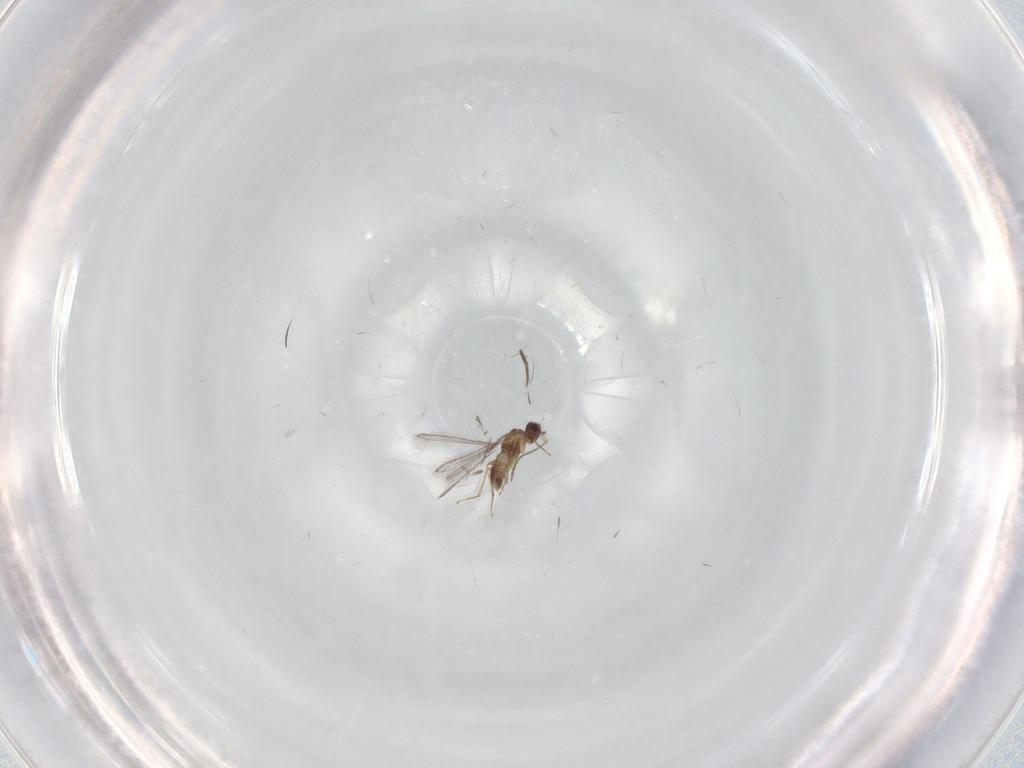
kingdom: Animalia
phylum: Arthropoda
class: Insecta
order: Hymenoptera
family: Mymaridae
